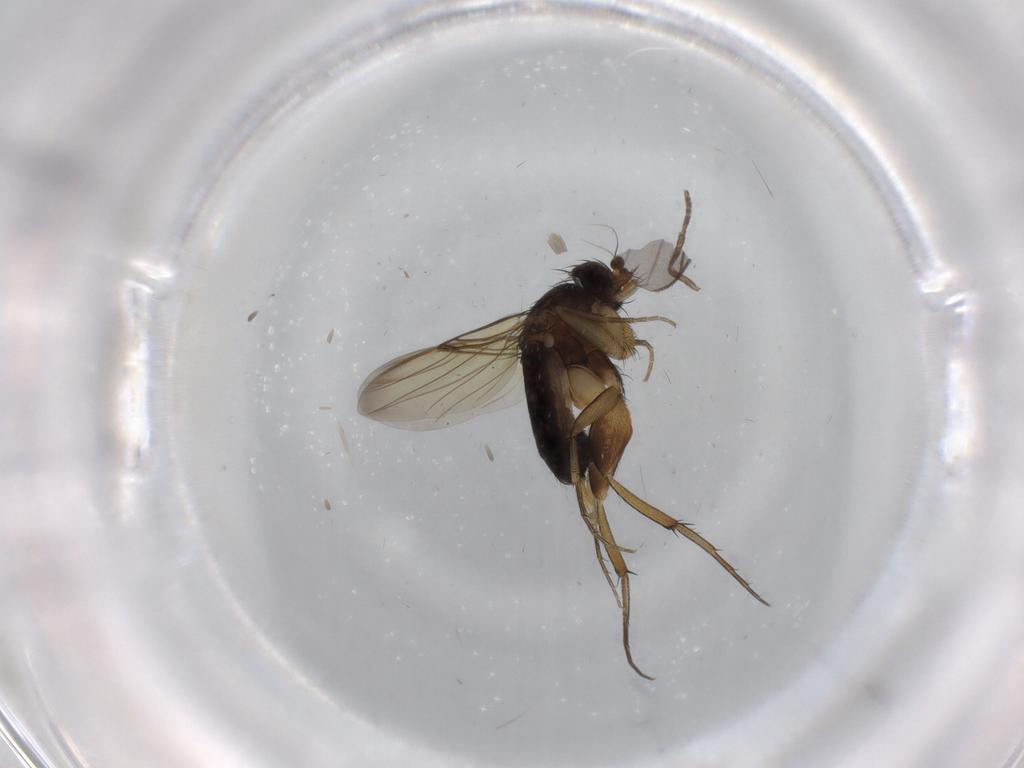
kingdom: Animalia
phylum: Arthropoda
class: Insecta
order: Diptera
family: Phoridae
